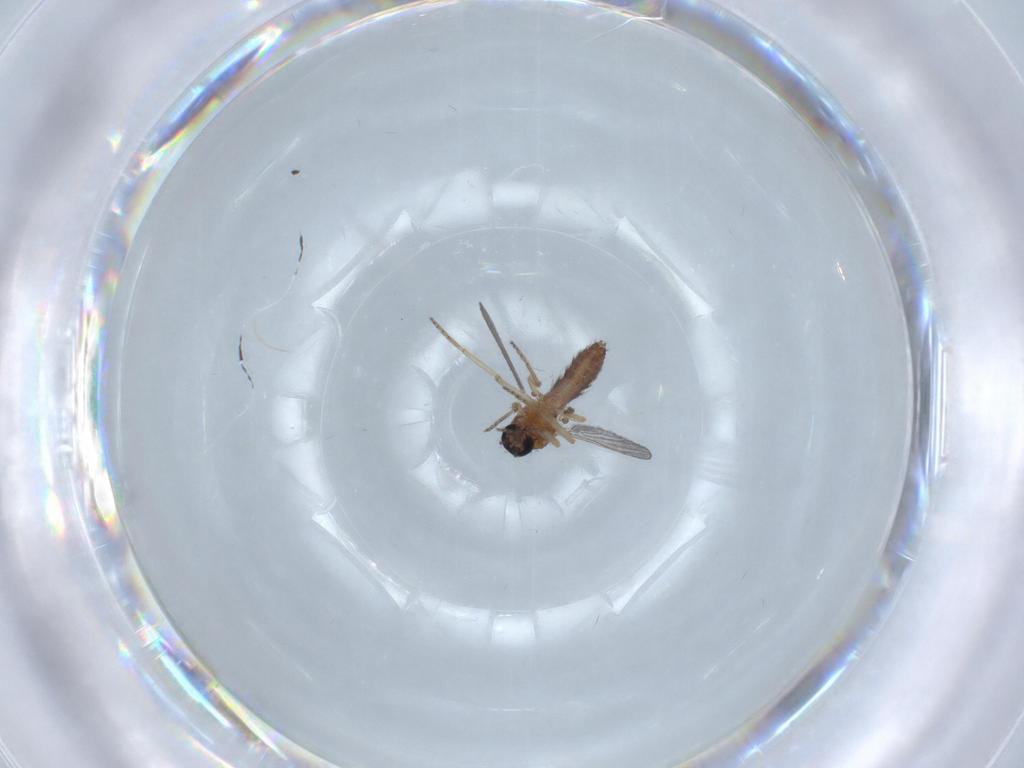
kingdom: Animalia
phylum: Arthropoda
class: Insecta
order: Diptera
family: Ceratopogonidae
